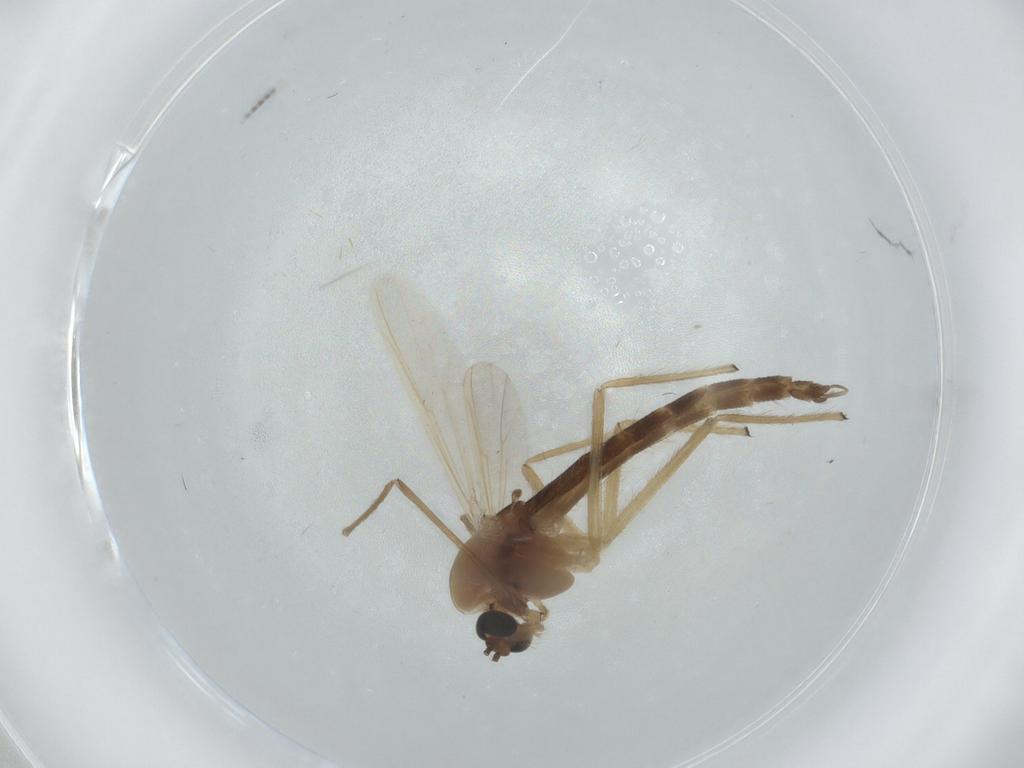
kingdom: Animalia
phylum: Arthropoda
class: Insecta
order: Diptera
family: Chironomidae
